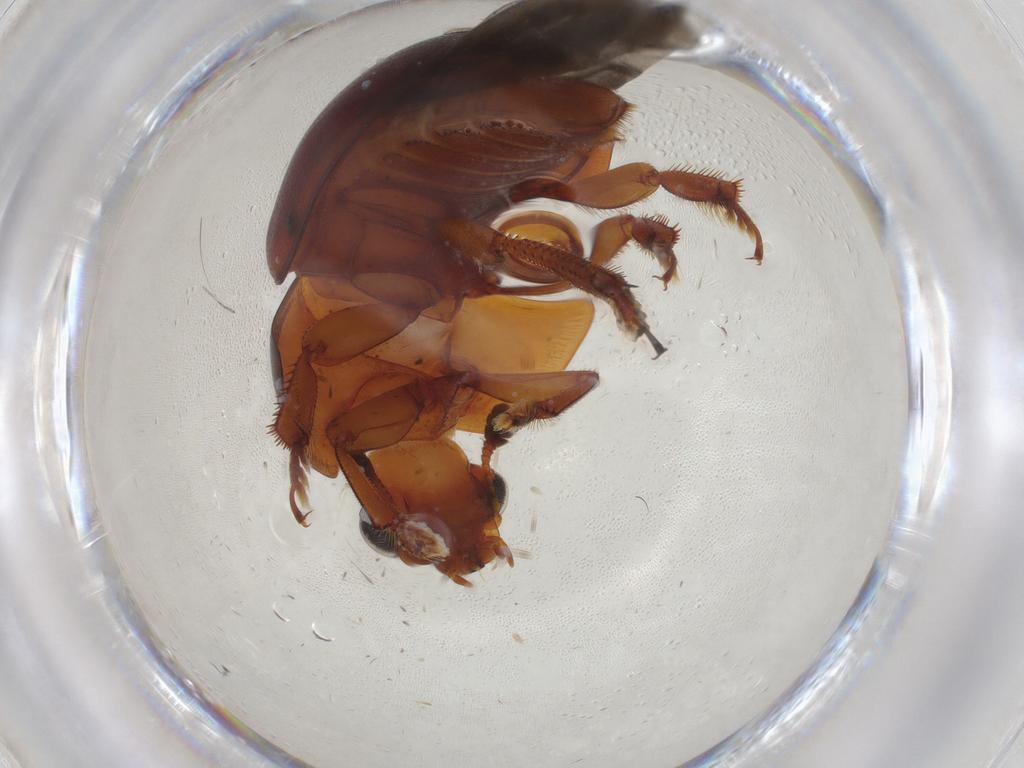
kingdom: Animalia
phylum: Arthropoda
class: Insecta
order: Coleoptera
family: Nitidulidae
